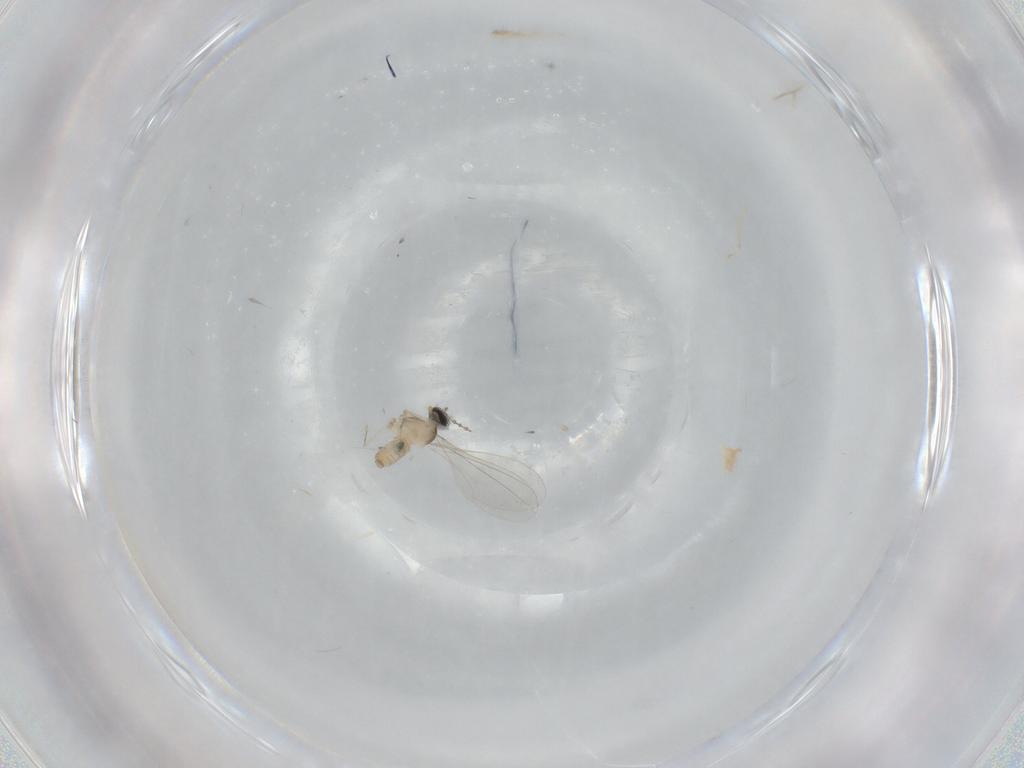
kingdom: Animalia
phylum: Arthropoda
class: Insecta
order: Diptera
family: Cecidomyiidae
